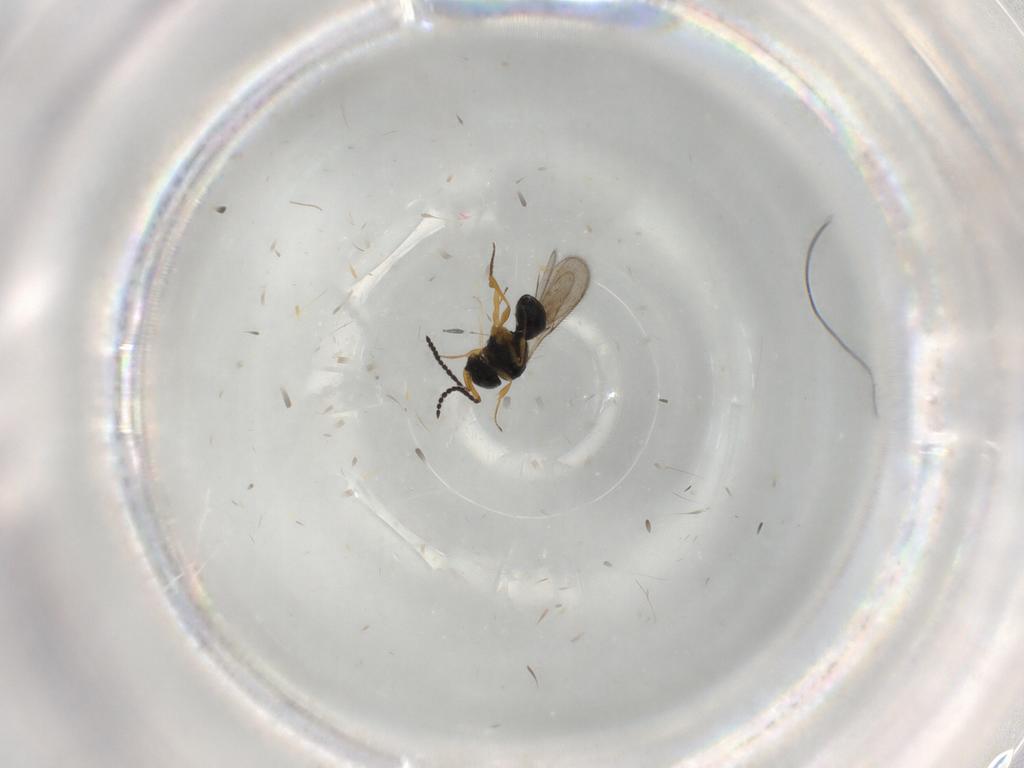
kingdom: Animalia
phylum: Arthropoda
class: Insecta
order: Hymenoptera
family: Scelionidae
